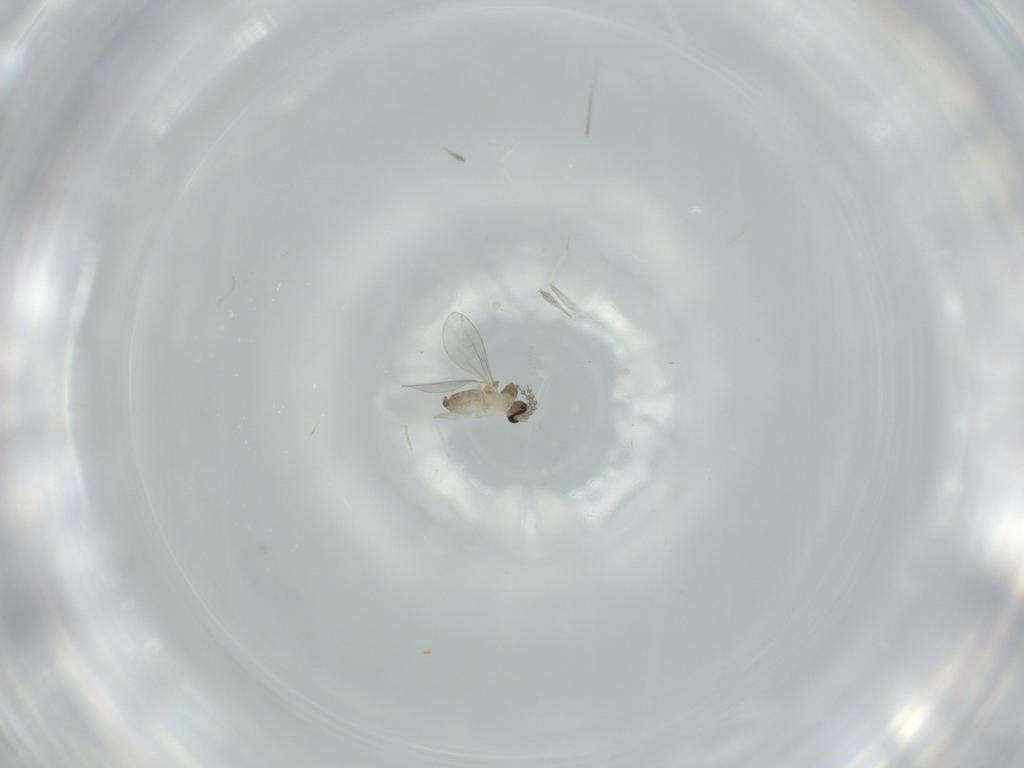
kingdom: Animalia
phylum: Arthropoda
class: Insecta
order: Diptera
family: Cecidomyiidae
